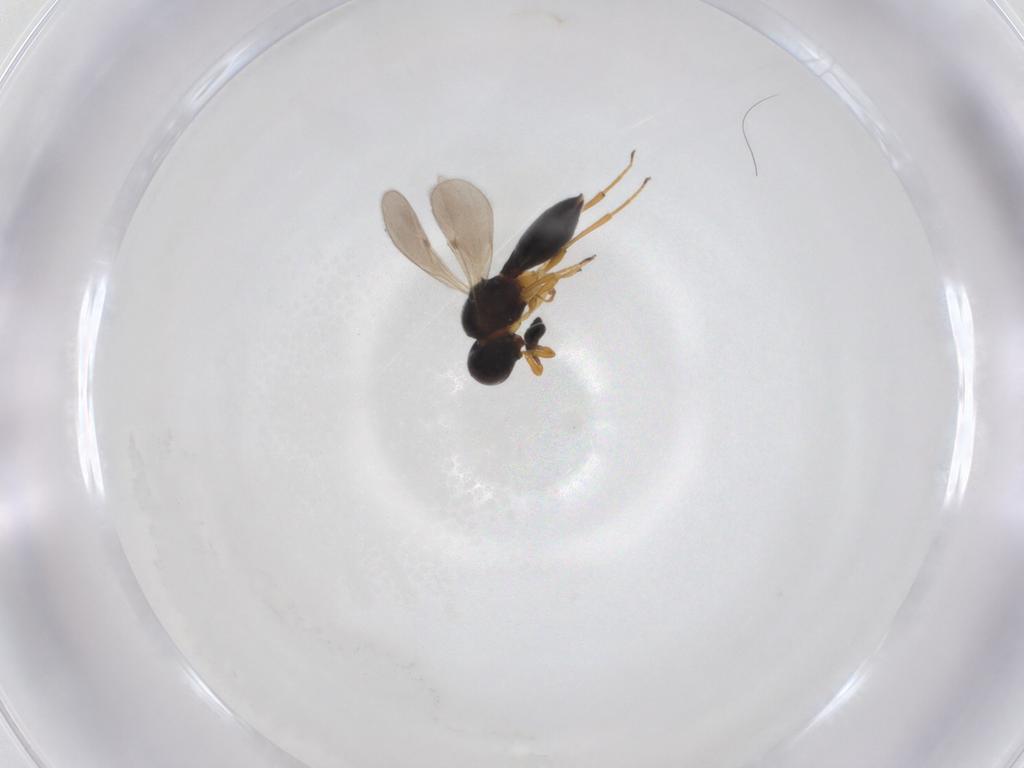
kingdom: Animalia
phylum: Arthropoda
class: Insecta
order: Hymenoptera
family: Scelionidae
